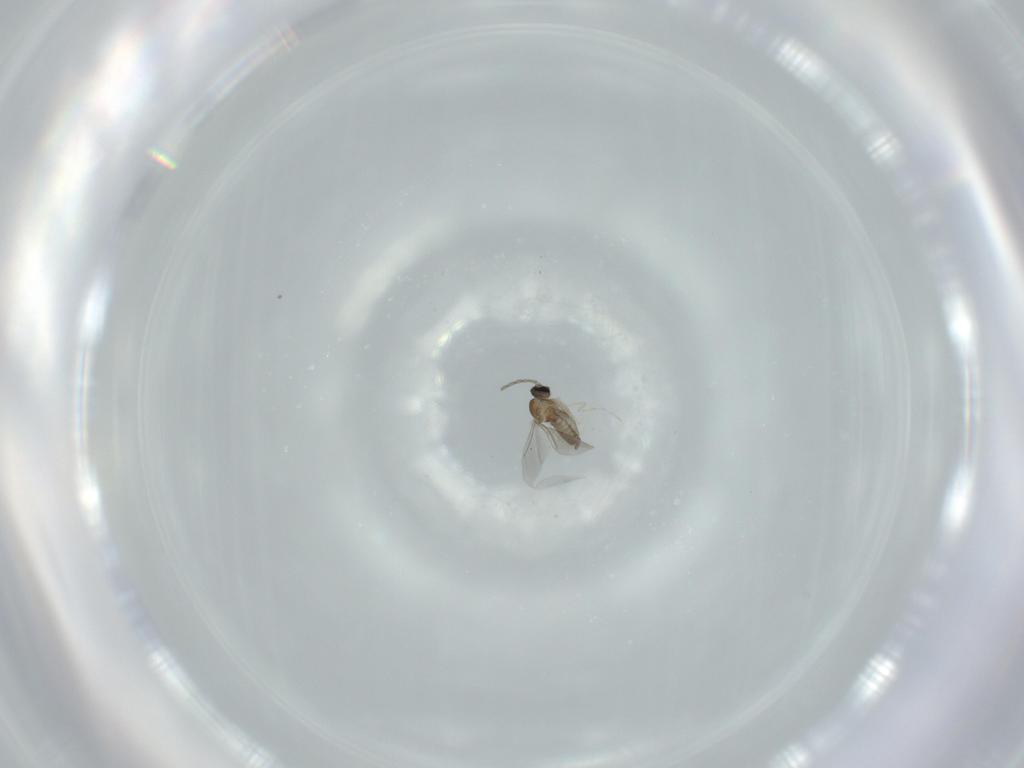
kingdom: Animalia
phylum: Arthropoda
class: Insecta
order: Diptera
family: Cecidomyiidae
